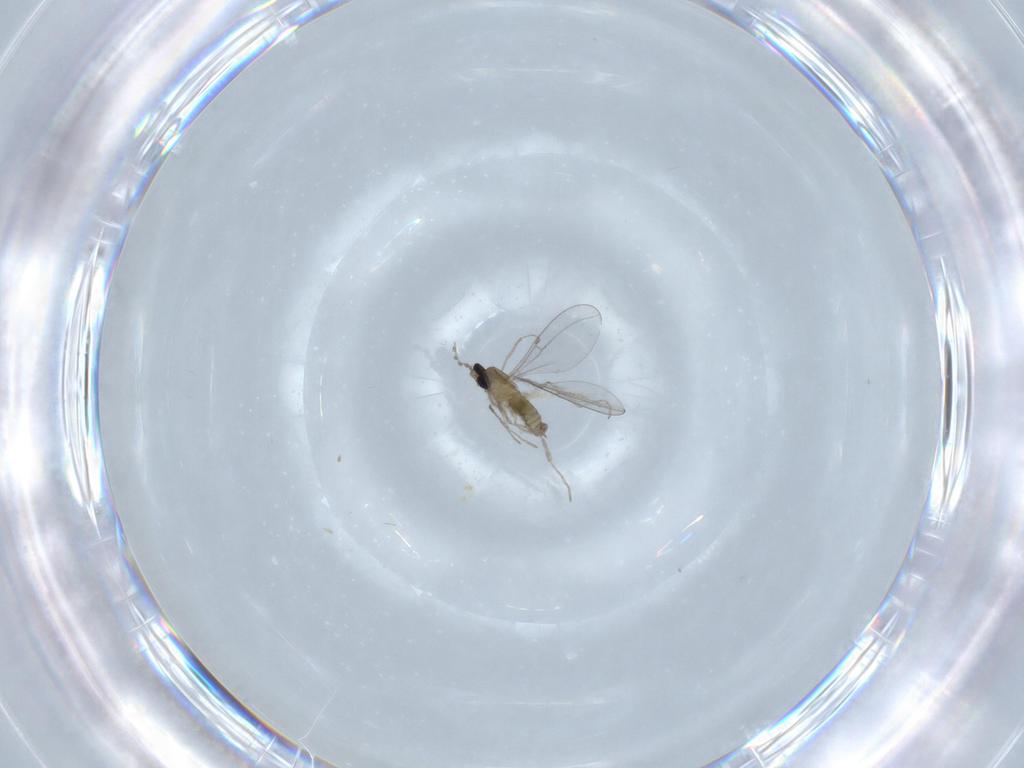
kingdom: Animalia
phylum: Arthropoda
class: Insecta
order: Diptera
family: Cecidomyiidae
